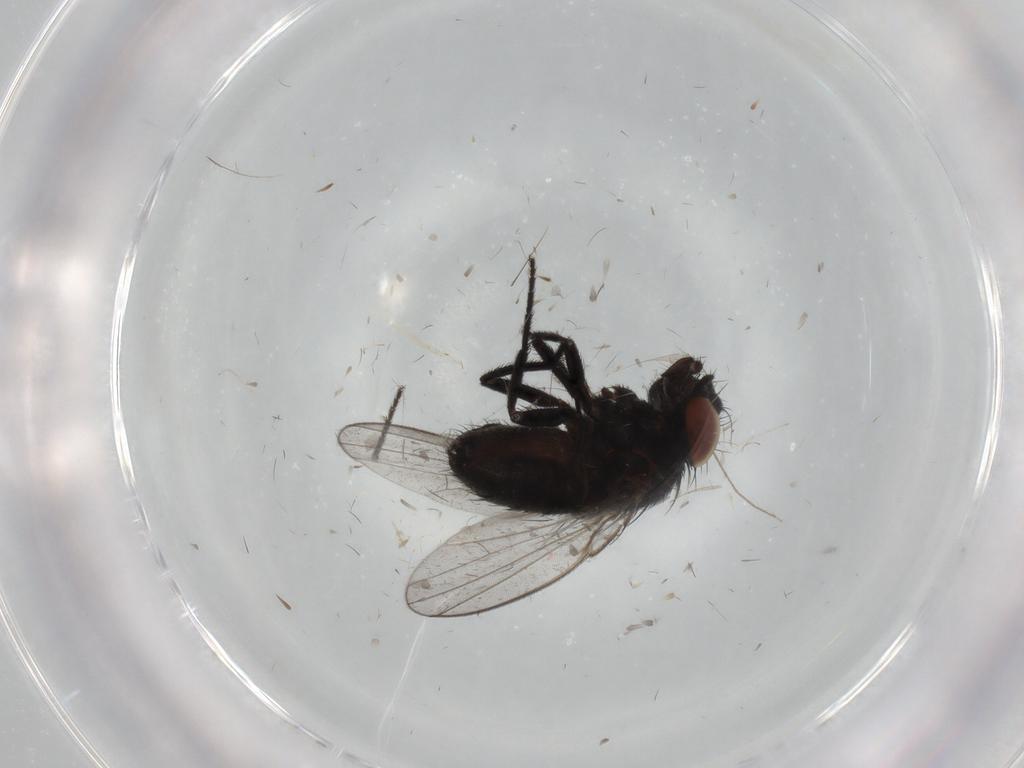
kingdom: Animalia
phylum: Arthropoda
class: Insecta
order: Diptera
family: Milichiidae
